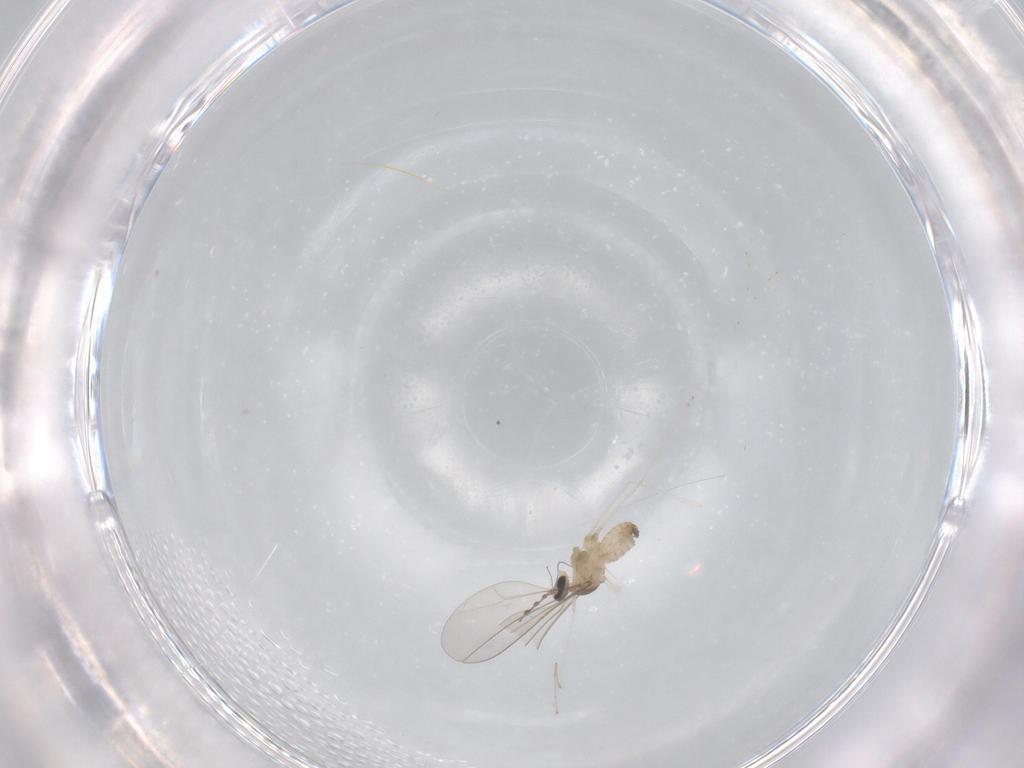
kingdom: Animalia
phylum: Arthropoda
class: Insecta
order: Diptera
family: Cecidomyiidae
